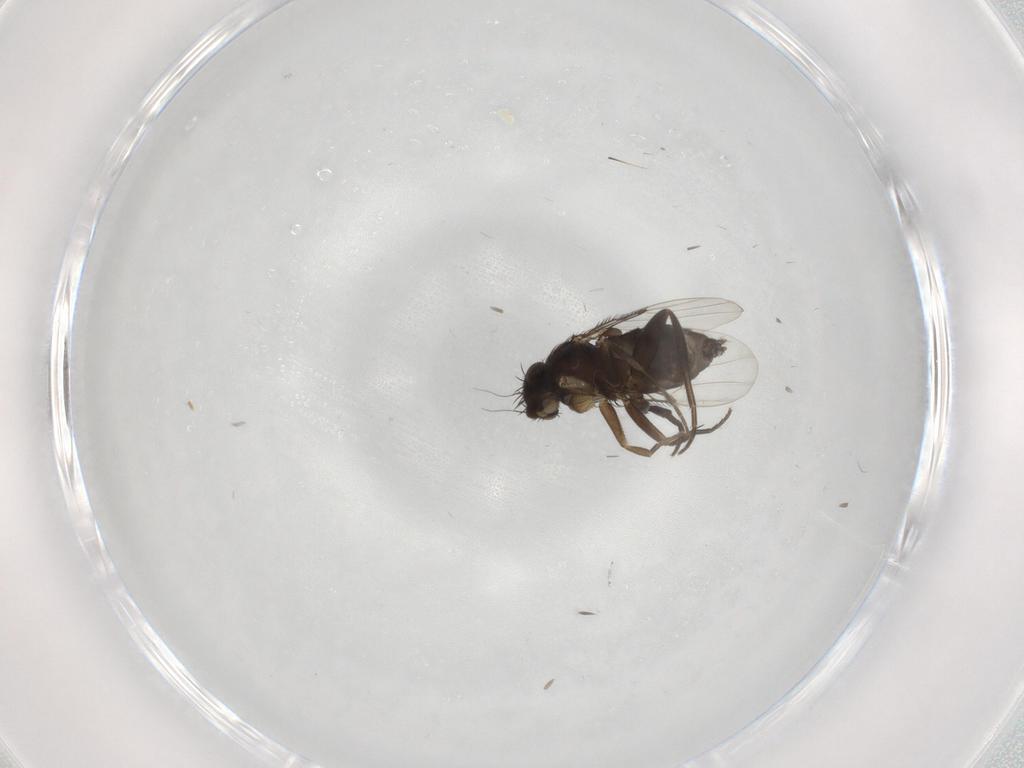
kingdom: Animalia
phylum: Arthropoda
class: Insecta
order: Diptera
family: Phoridae
